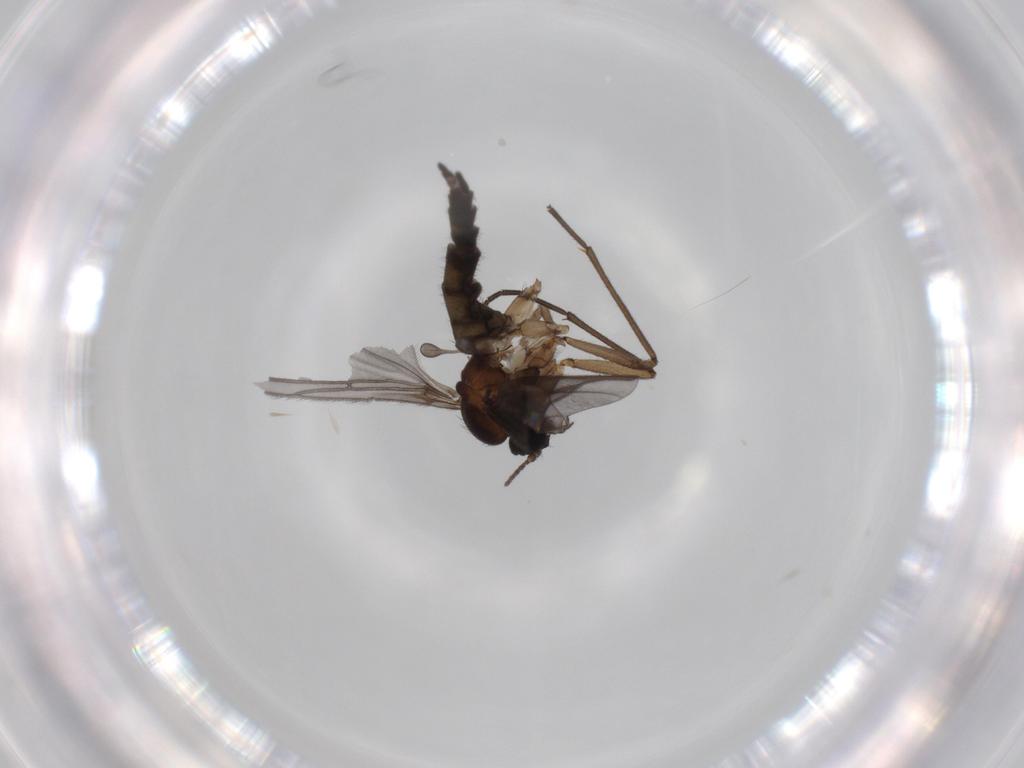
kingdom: Animalia
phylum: Arthropoda
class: Insecta
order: Diptera
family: Sciaridae
